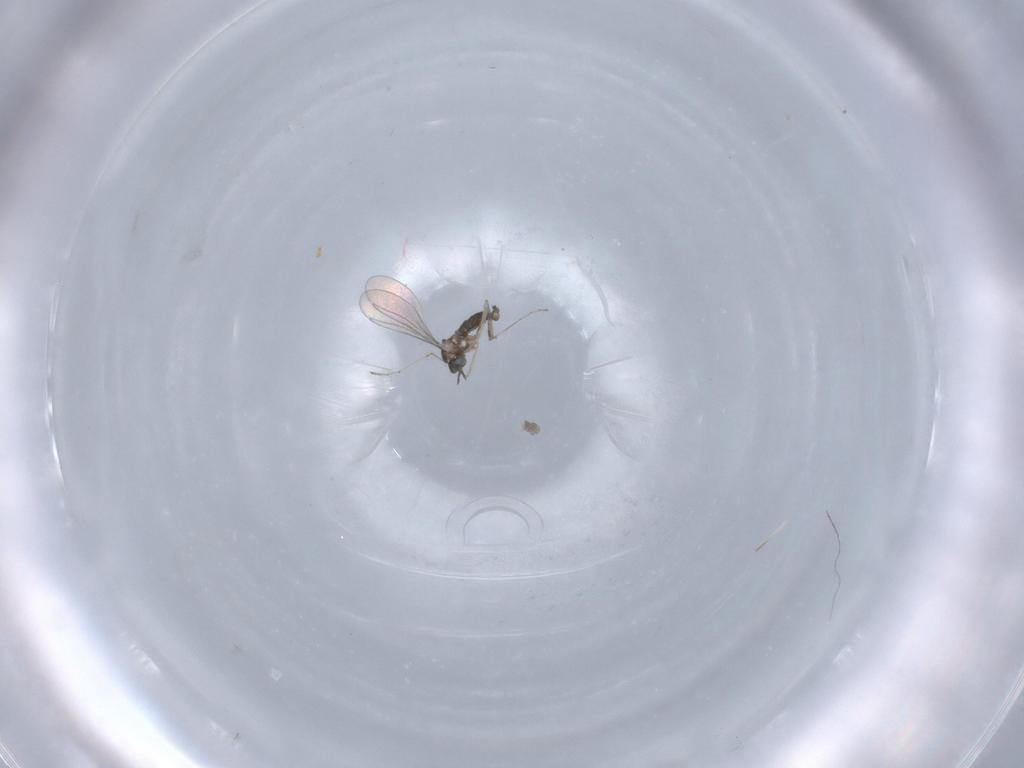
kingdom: Animalia
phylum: Arthropoda
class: Insecta
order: Diptera
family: Cecidomyiidae
